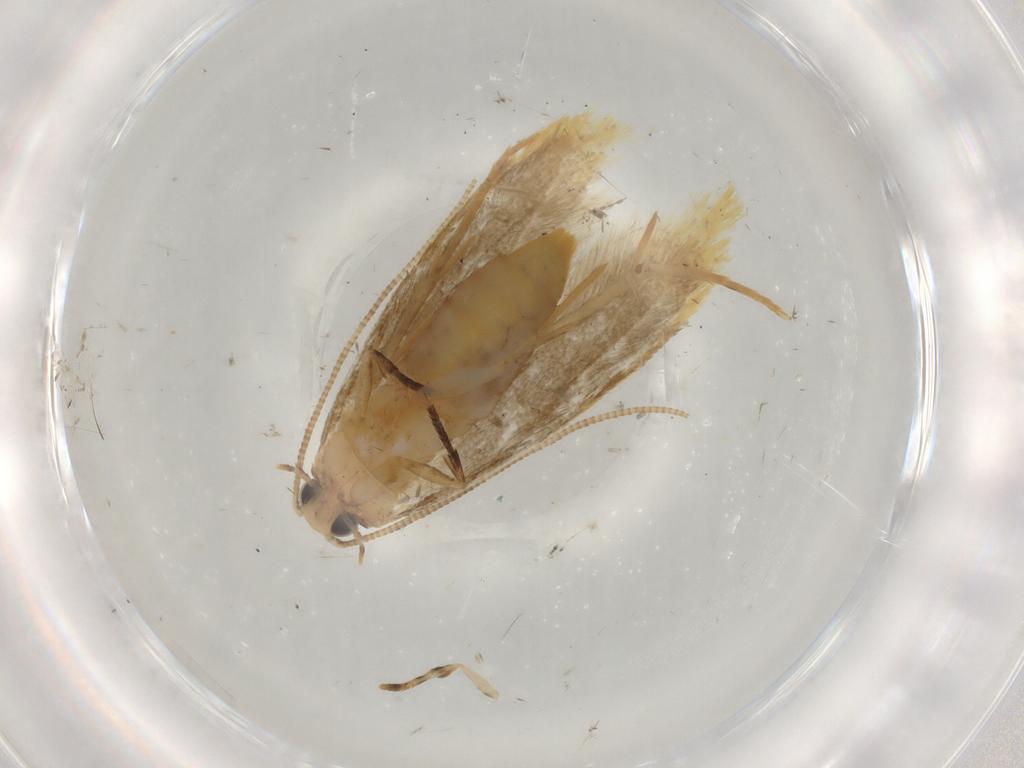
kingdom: Animalia
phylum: Arthropoda
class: Insecta
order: Lepidoptera
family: Tineidae
